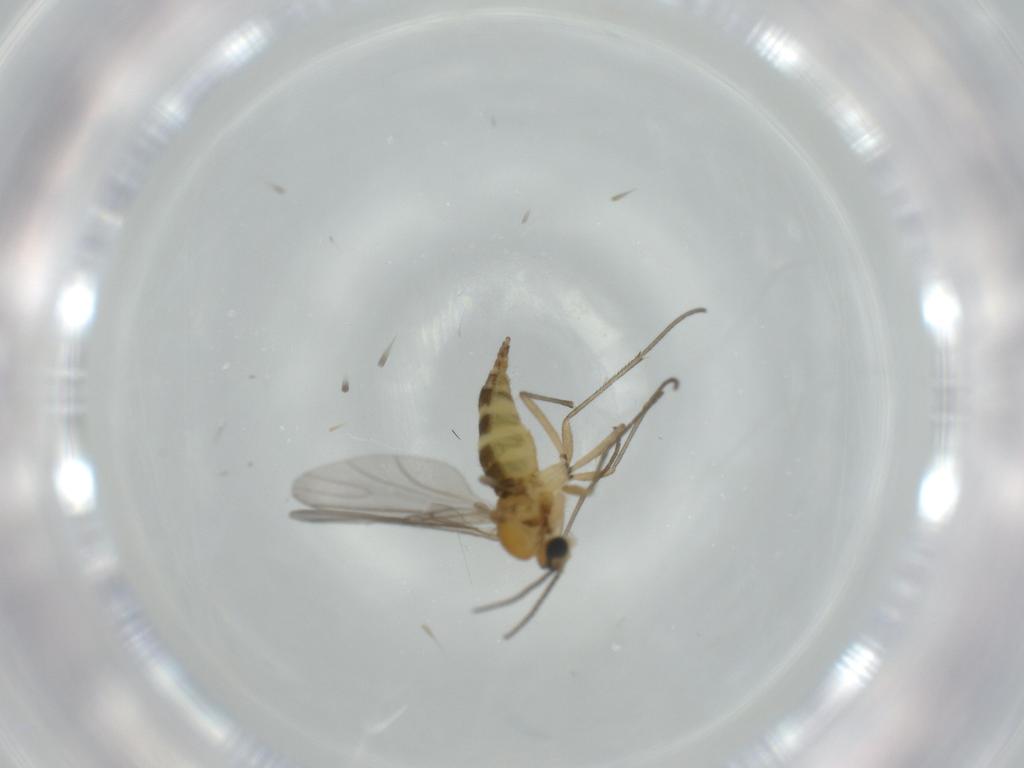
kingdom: Animalia
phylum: Arthropoda
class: Insecta
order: Diptera
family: Sciaridae
